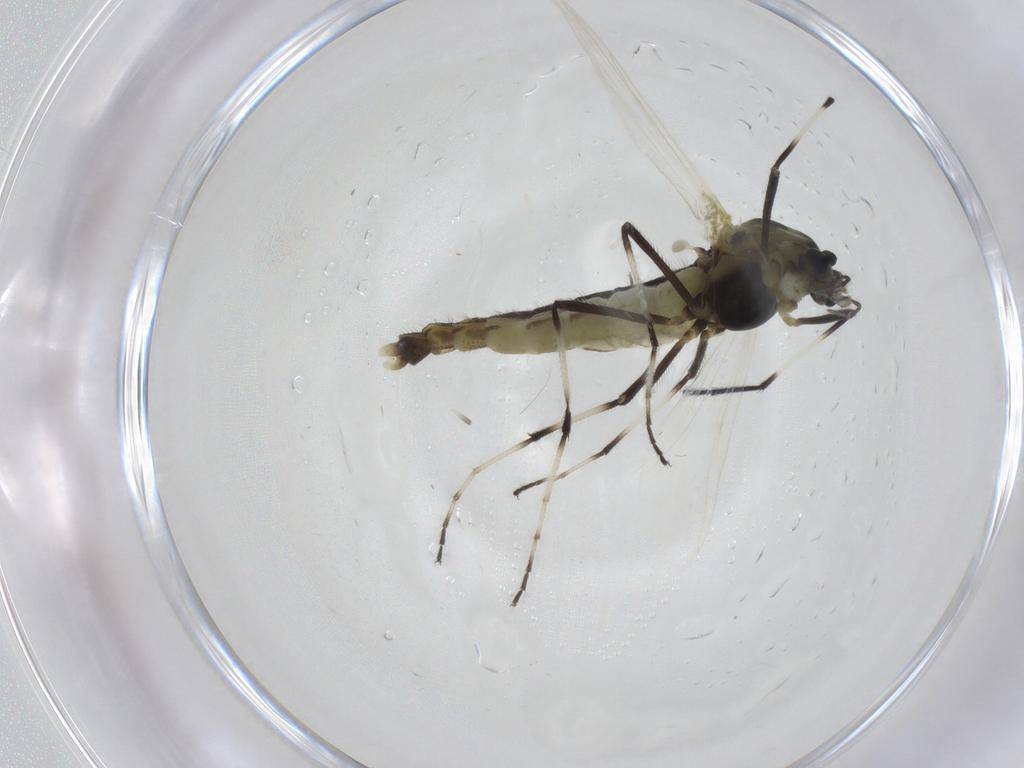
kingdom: Animalia
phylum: Arthropoda
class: Insecta
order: Diptera
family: Chironomidae
